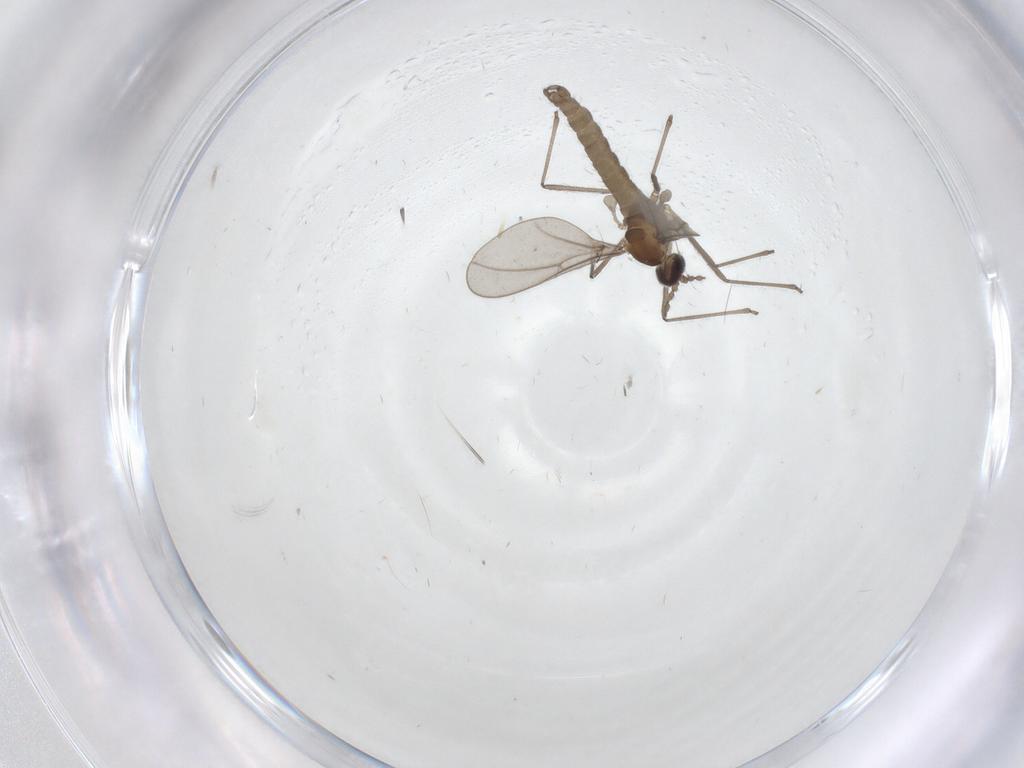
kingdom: Animalia
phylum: Arthropoda
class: Insecta
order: Diptera
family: Cecidomyiidae
